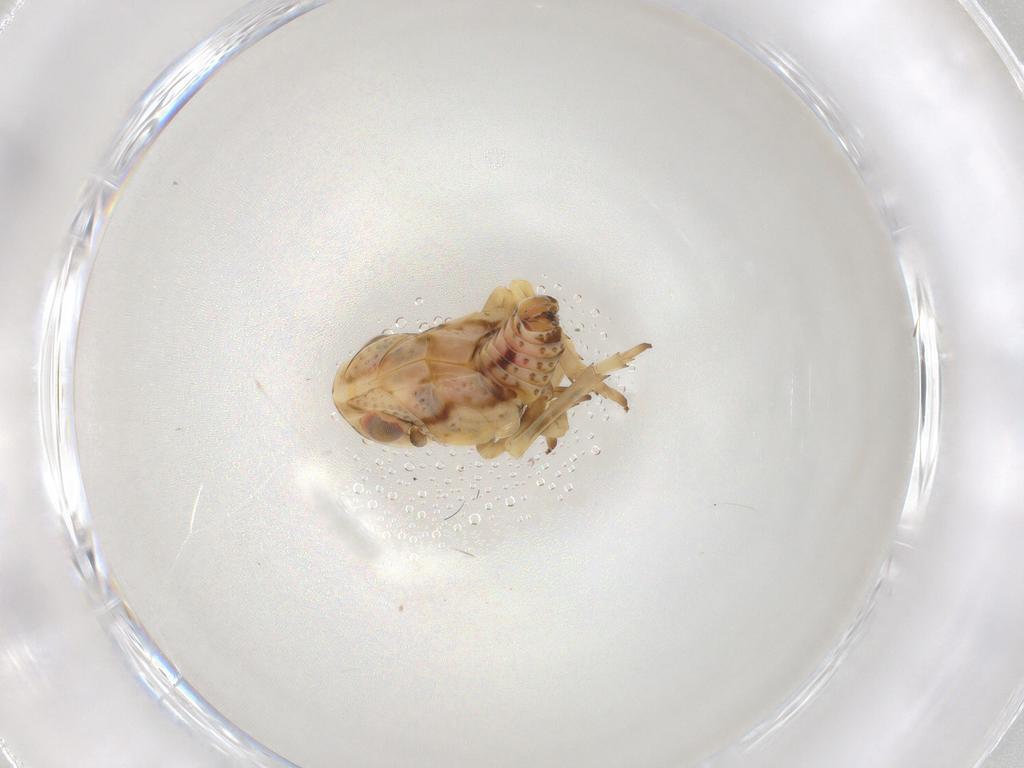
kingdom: Animalia
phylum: Arthropoda
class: Insecta
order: Hemiptera
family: Fulgoroidea_incertae_sedis
